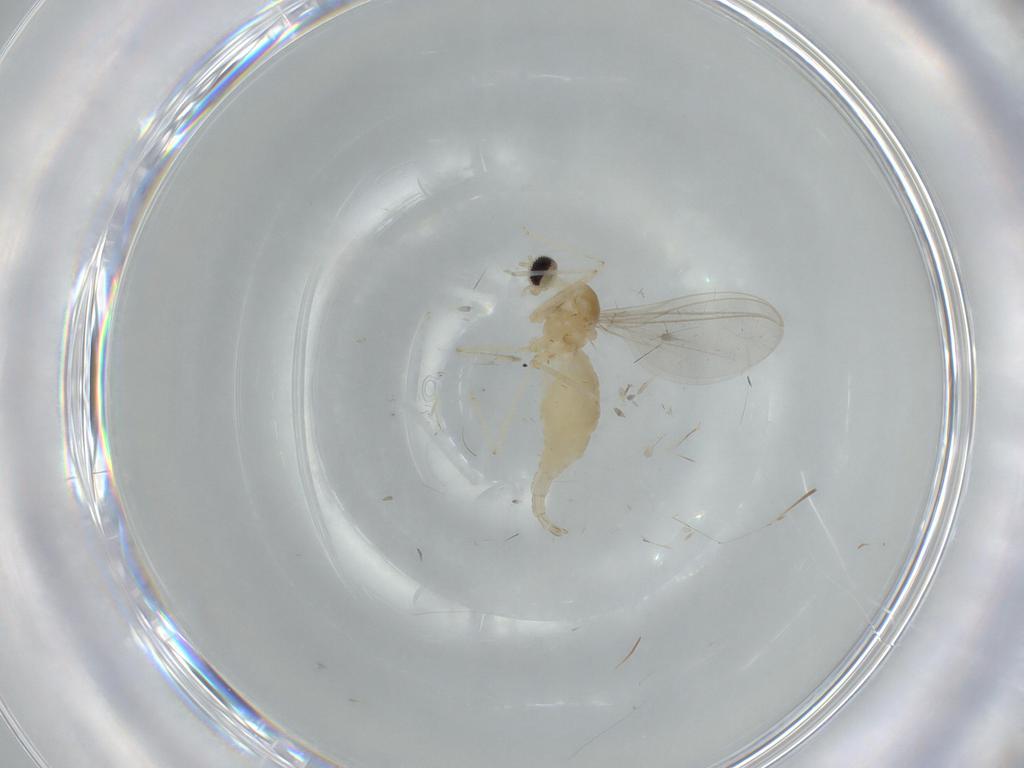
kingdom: Animalia
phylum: Arthropoda
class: Insecta
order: Diptera
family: Cecidomyiidae
